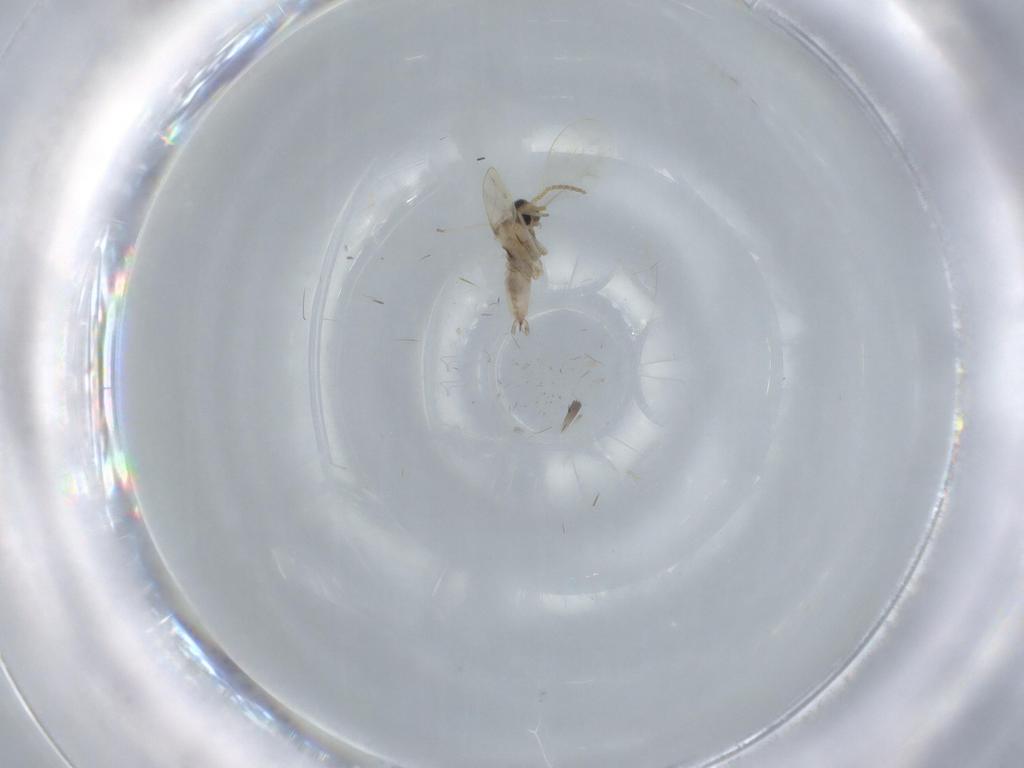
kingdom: Animalia
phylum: Arthropoda
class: Insecta
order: Diptera
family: Cecidomyiidae
